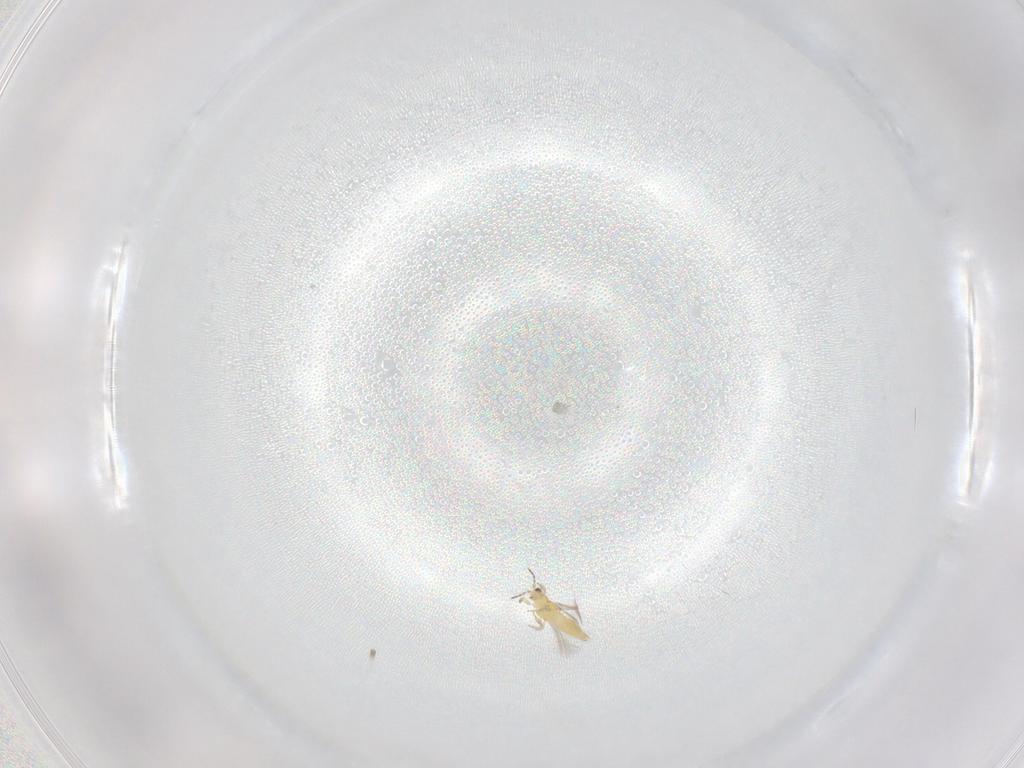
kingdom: Animalia
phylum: Arthropoda
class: Insecta
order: Thysanoptera
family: Thripidae
